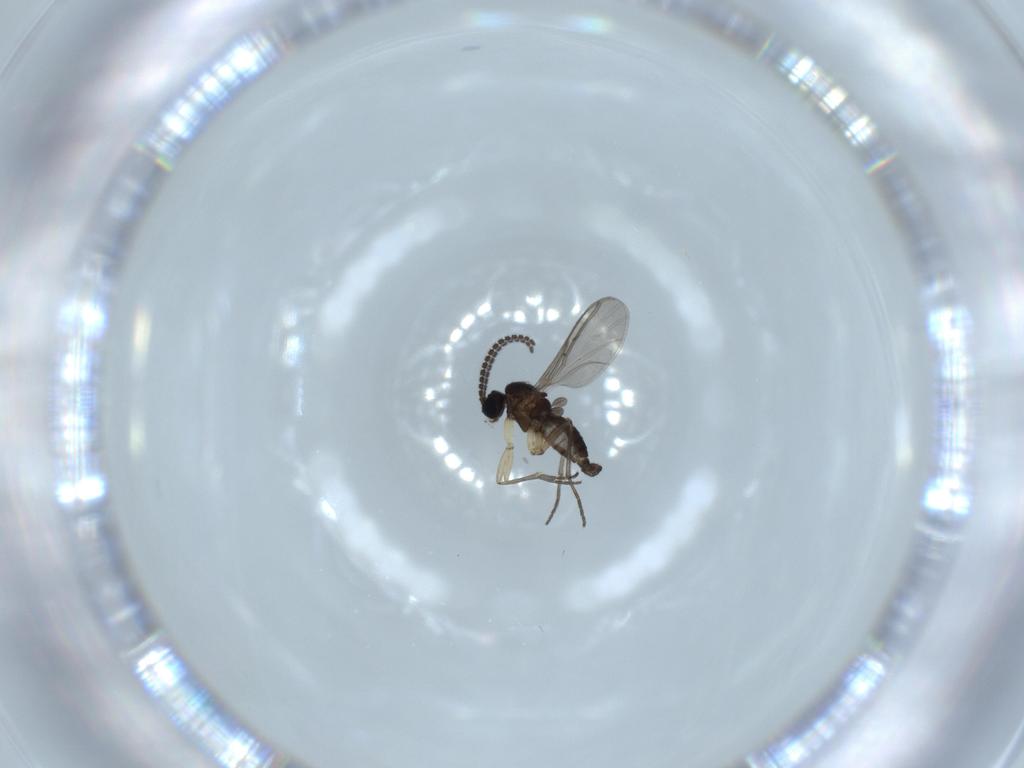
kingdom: Animalia
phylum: Arthropoda
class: Insecta
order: Diptera
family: Sciaridae
